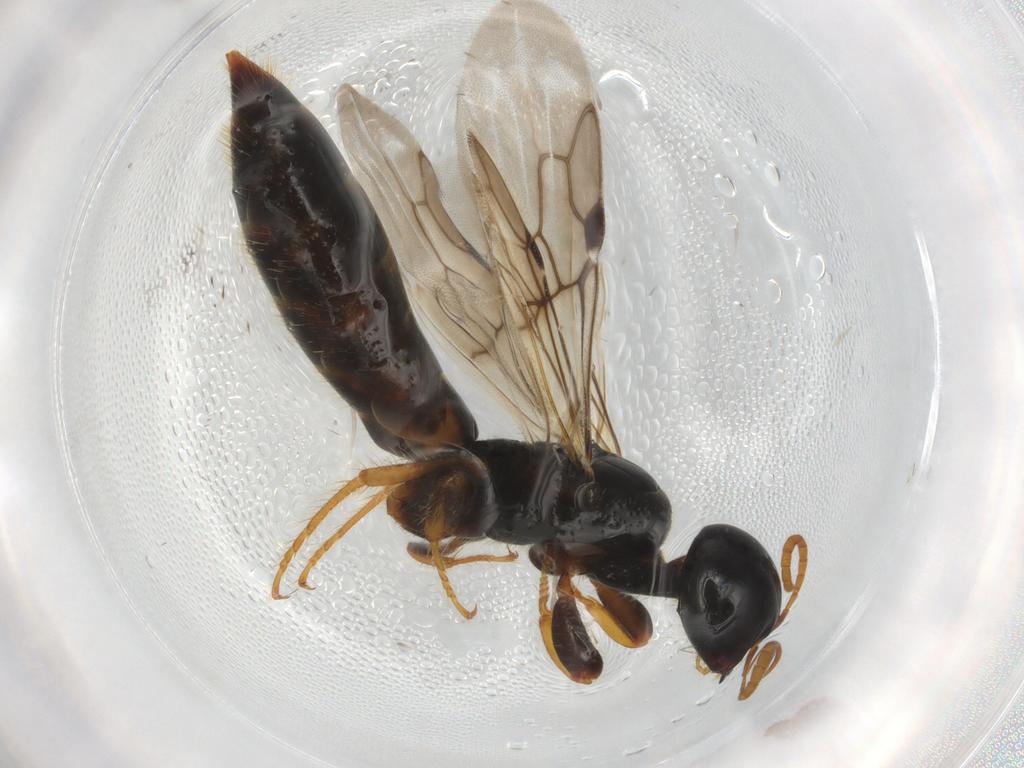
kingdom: Animalia
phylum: Arthropoda
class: Insecta
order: Hymenoptera
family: Scolebythidae
